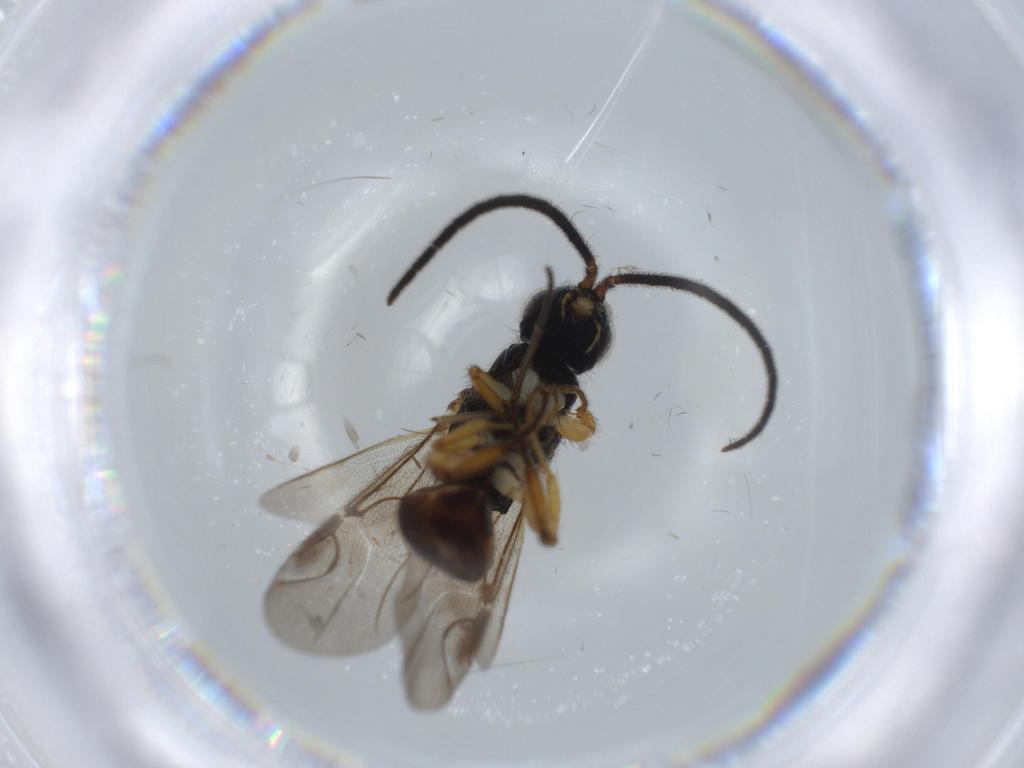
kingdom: Animalia
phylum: Arthropoda
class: Insecta
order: Hymenoptera
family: Chrysididae
